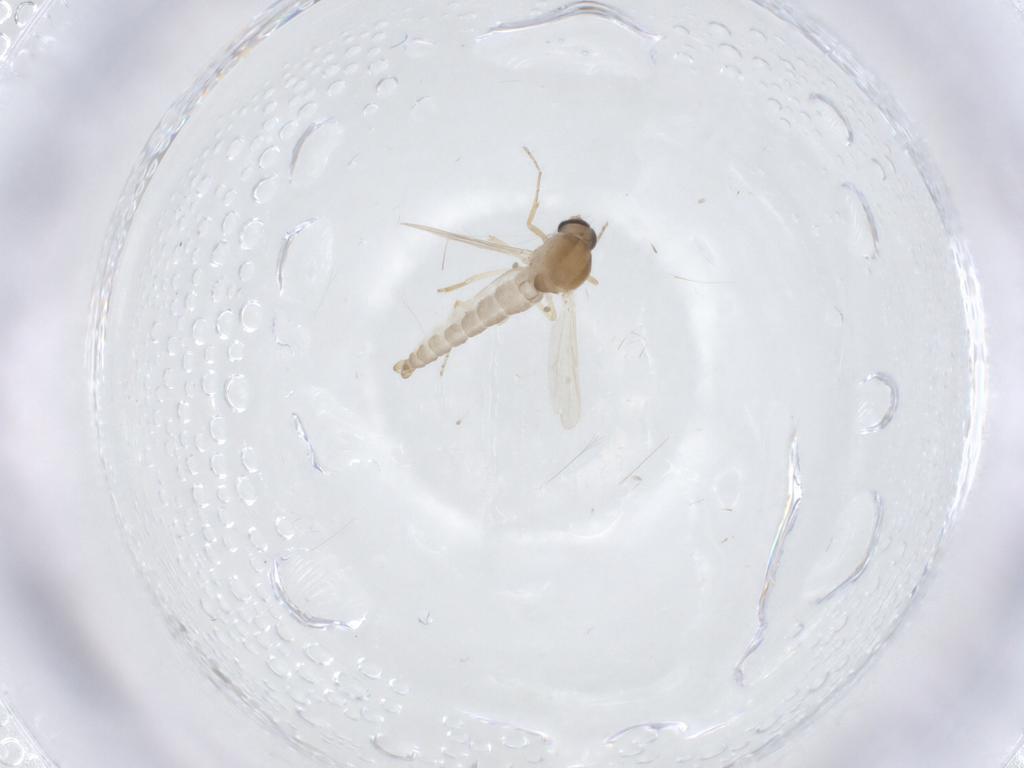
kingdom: Animalia
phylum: Arthropoda
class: Insecta
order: Diptera
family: Ceratopogonidae
